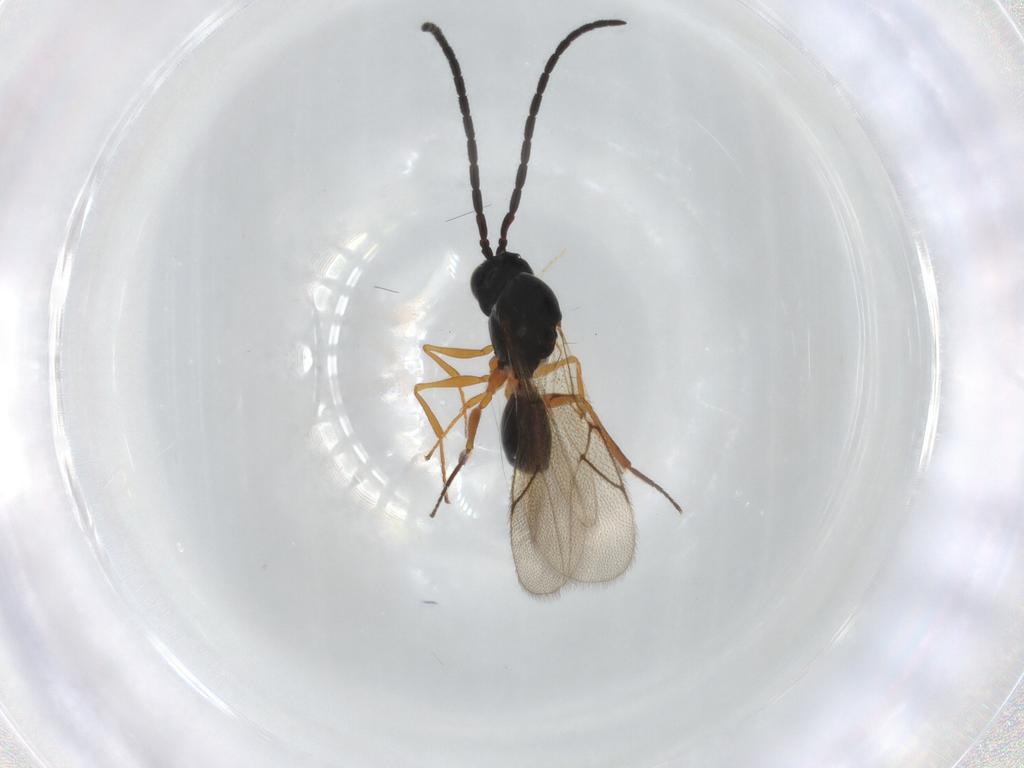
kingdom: Animalia
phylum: Arthropoda
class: Insecta
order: Hymenoptera
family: Figitidae
